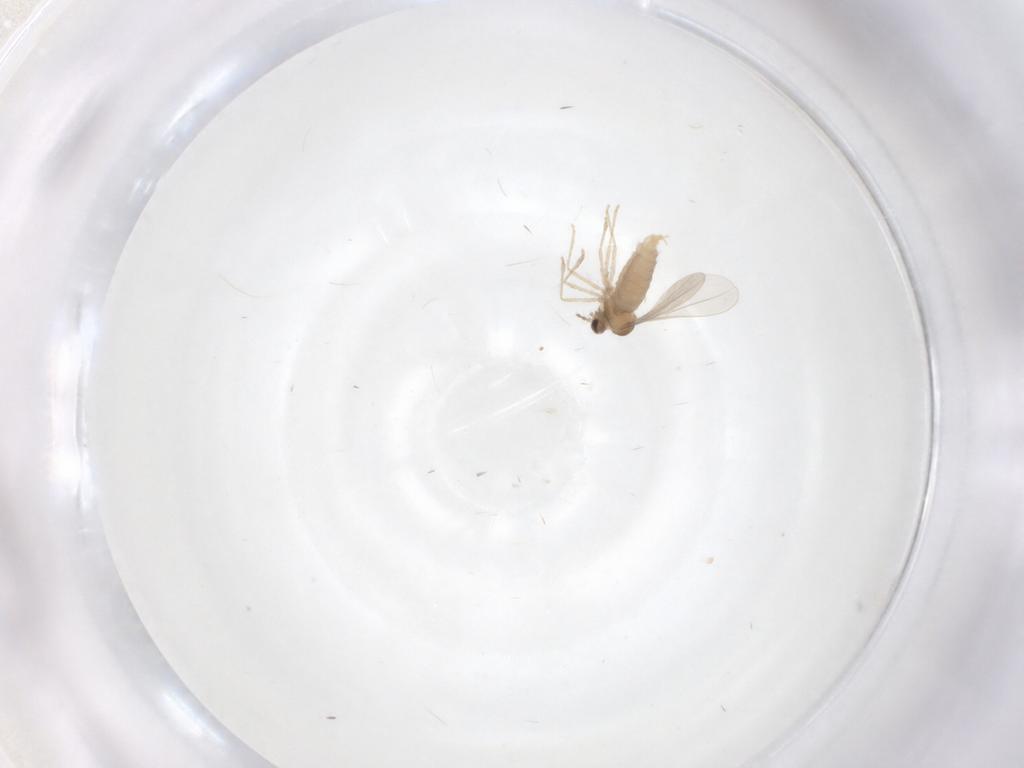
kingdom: Animalia
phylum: Arthropoda
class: Insecta
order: Diptera
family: Cecidomyiidae
